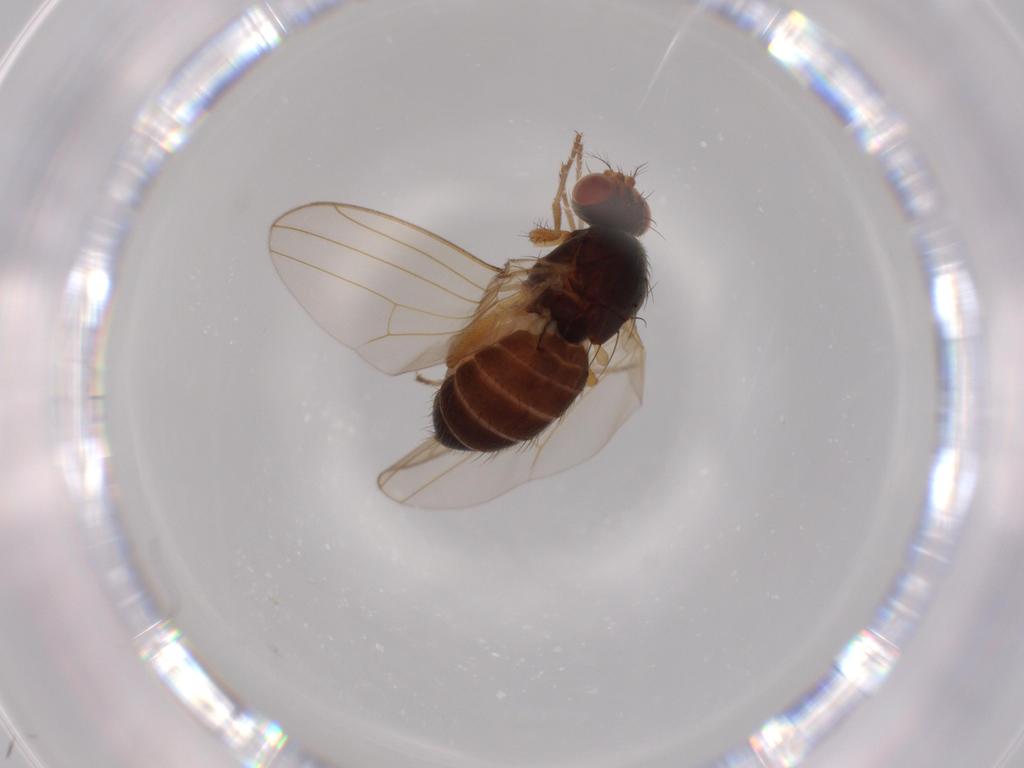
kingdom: Animalia
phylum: Arthropoda
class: Insecta
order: Diptera
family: Drosophilidae
